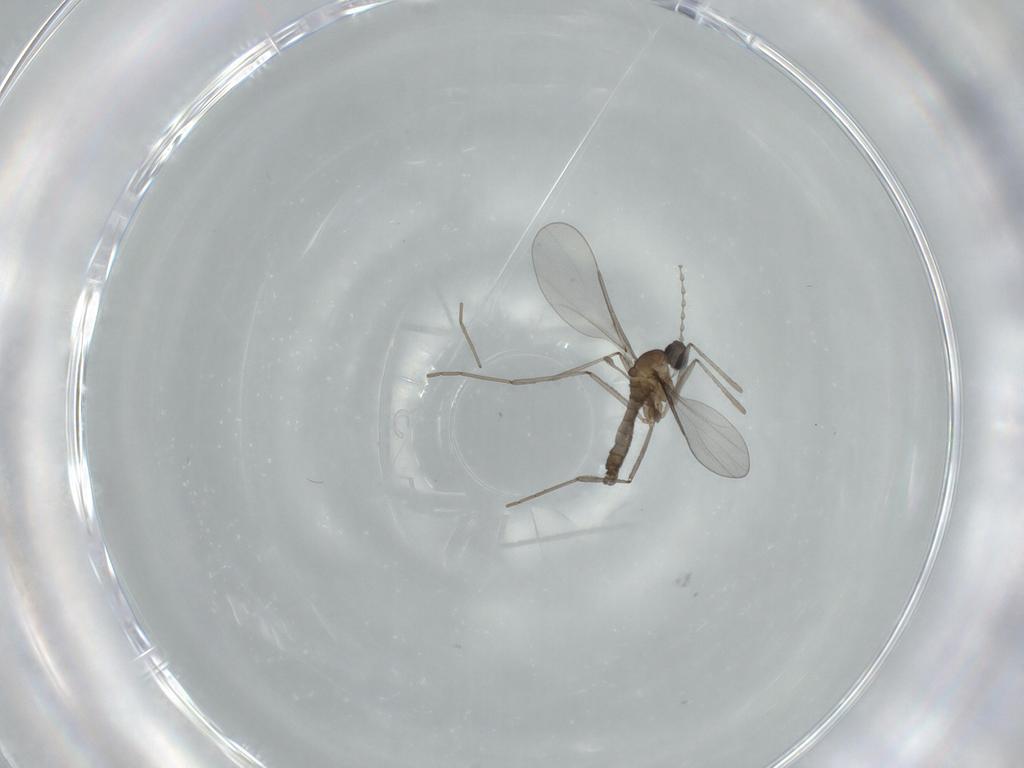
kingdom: Animalia
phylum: Arthropoda
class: Insecta
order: Diptera
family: Cecidomyiidae
